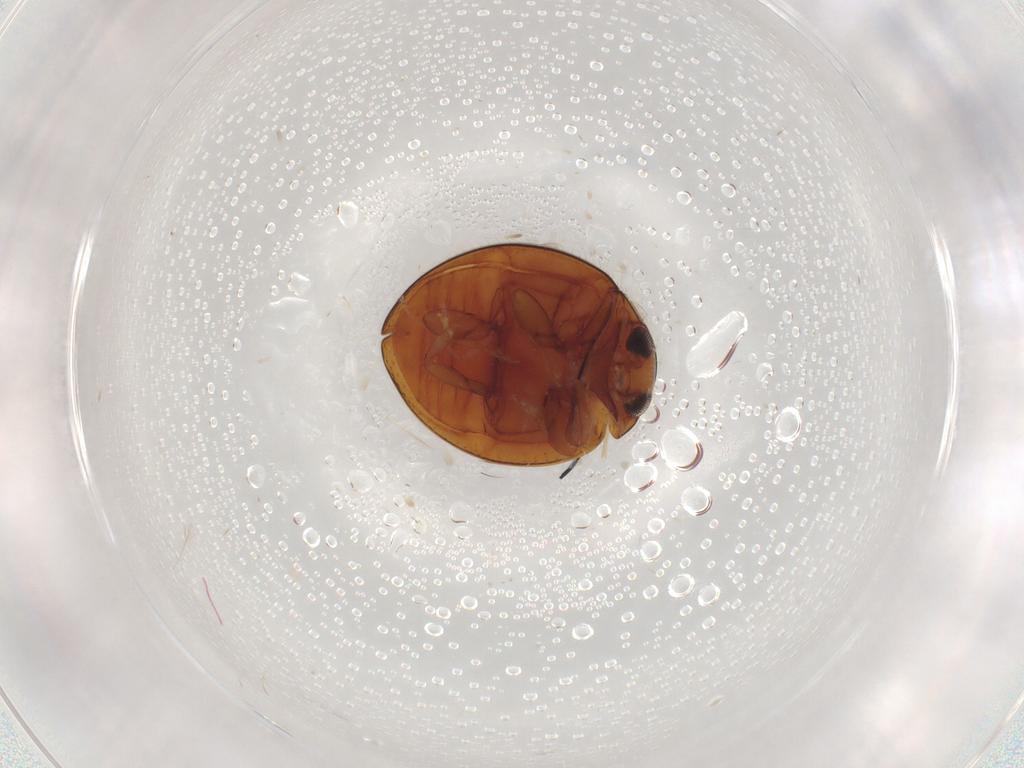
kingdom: Animalia
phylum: Arthropoda
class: Insecta
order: Coleoptera
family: Coccinellidae
